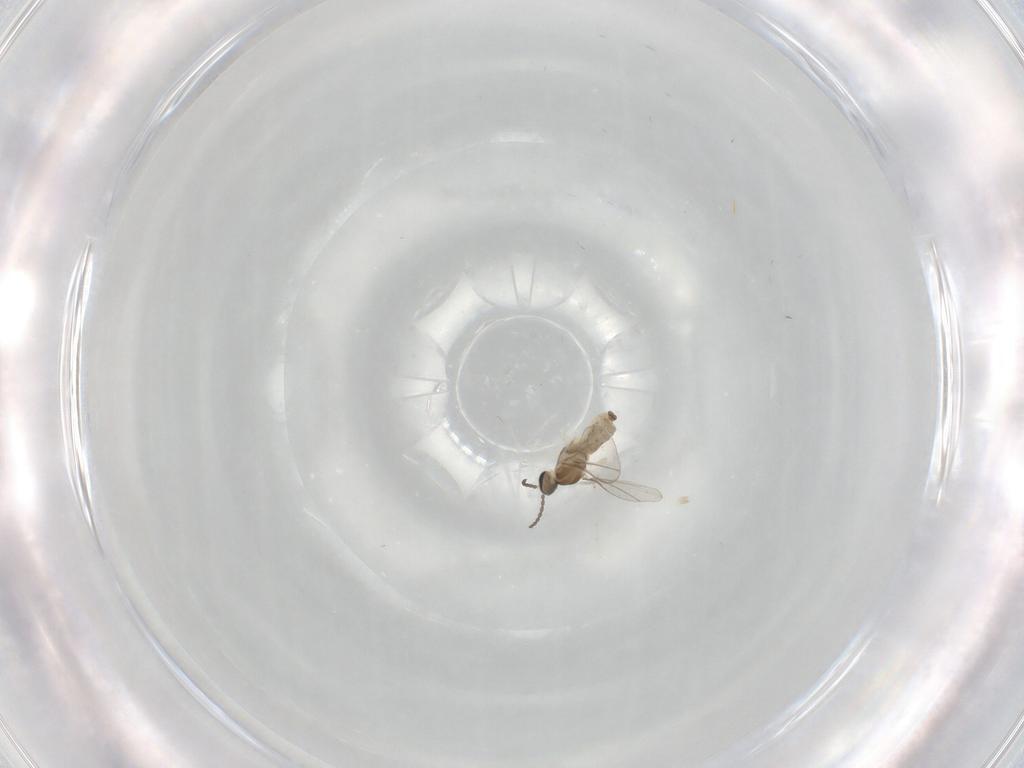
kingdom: Animalia
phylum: Arthropoda
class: Insecta
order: Diptera
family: Cecidomyiidae
